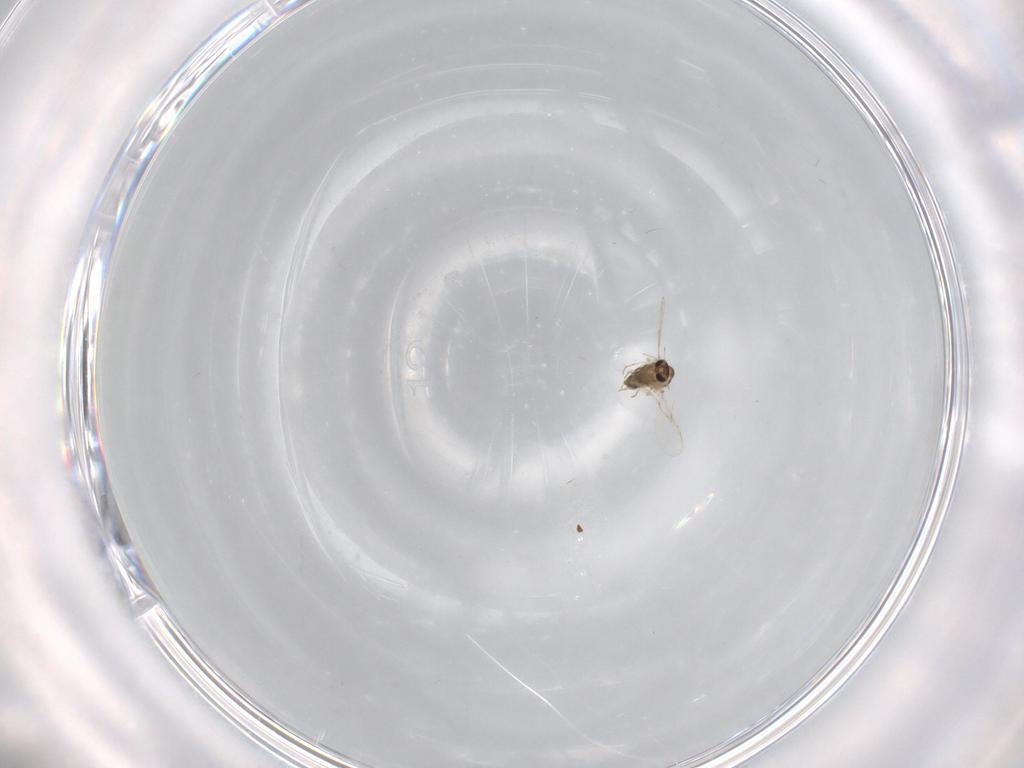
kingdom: Animalia
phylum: Arthropoda
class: Insecta
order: Diptera
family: Chironomidae
